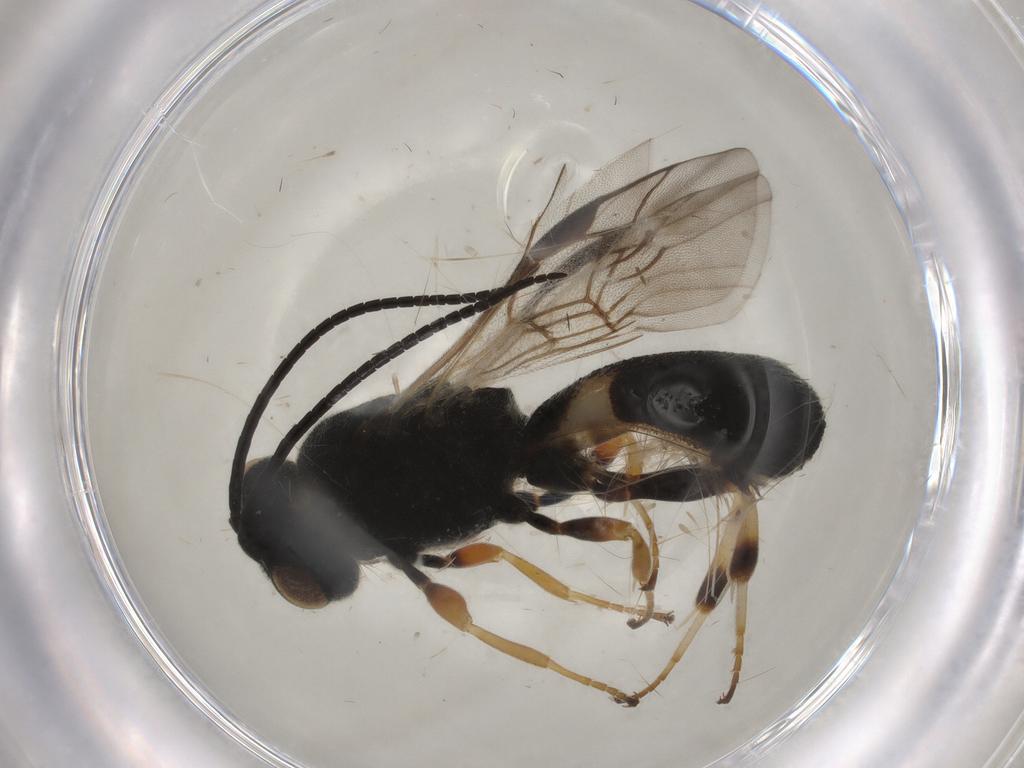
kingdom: Animalia
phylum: Arthropoda
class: Insecta
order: Hymenoptera
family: Braconidae
